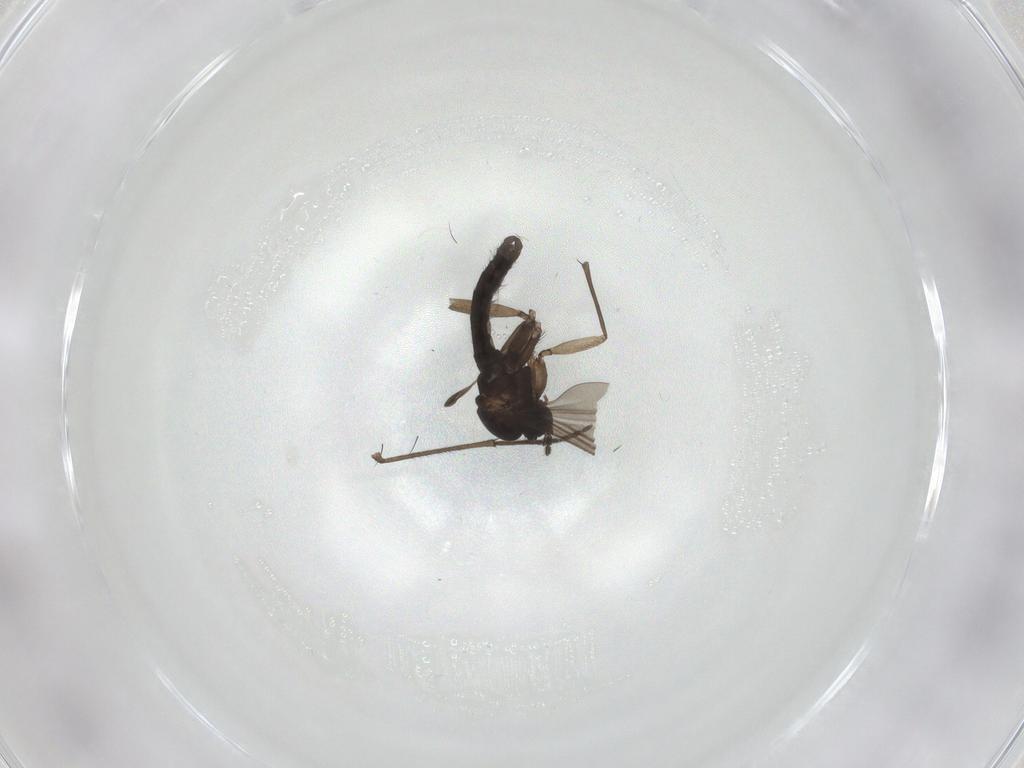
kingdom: Animalia
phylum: Arthropoda
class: Insecta
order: Diptera
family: Sciaridae
